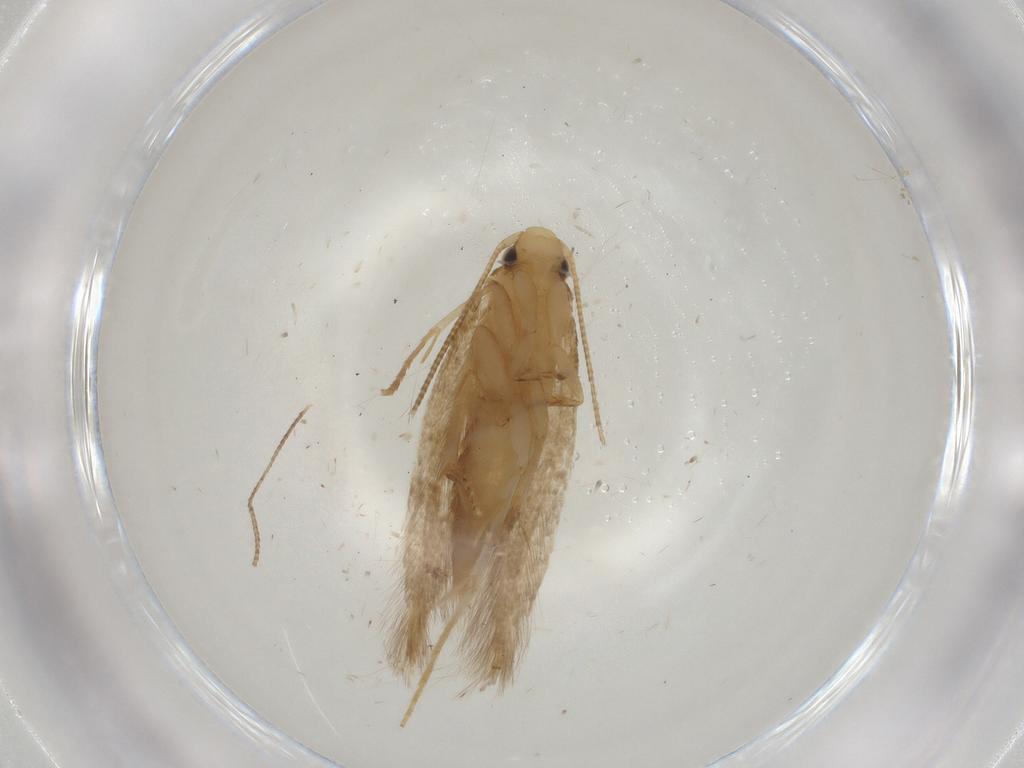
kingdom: Animalia
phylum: Arthropoda
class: Insecta
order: Lepidoptera
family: Tineidae
